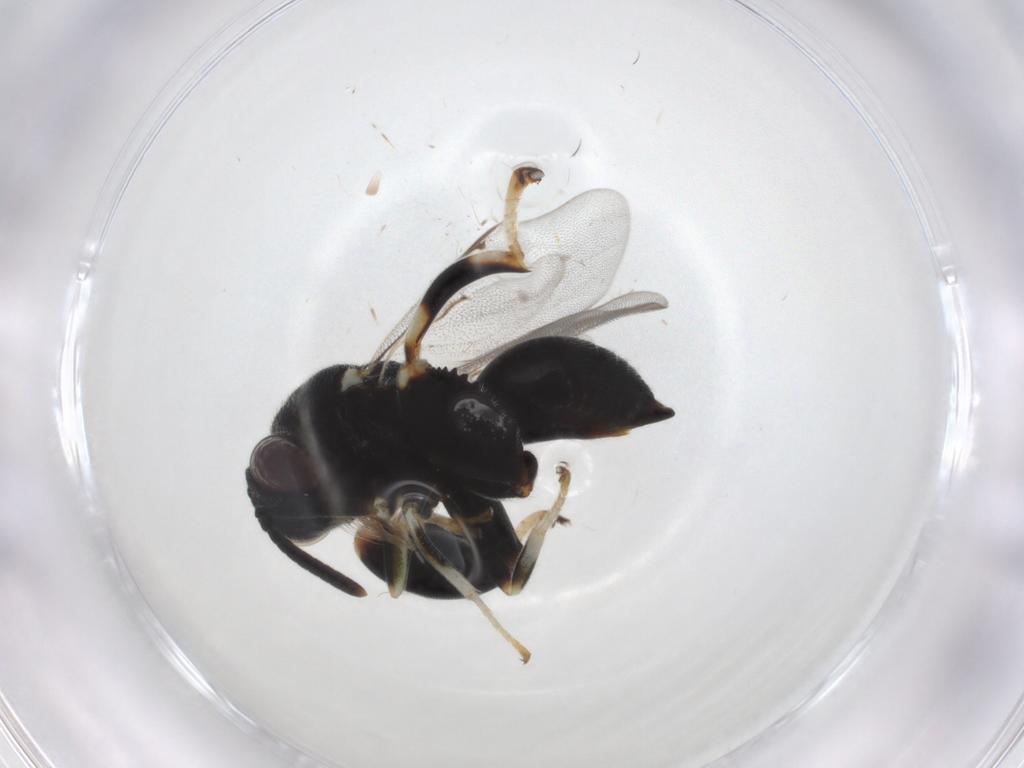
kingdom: Animalia
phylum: Arthropoda
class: Insecta
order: Hymenoptera
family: Chalcididae
